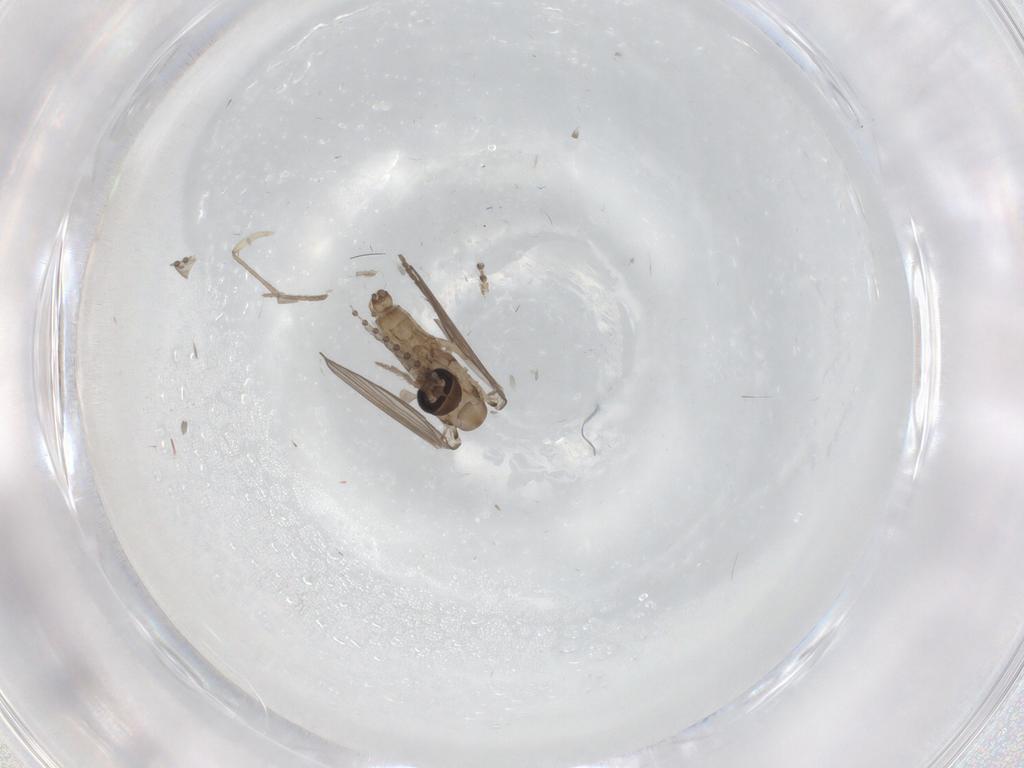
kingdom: Animalia
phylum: Arthropoda
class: Insecta
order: Diptera
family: Psychodidae
